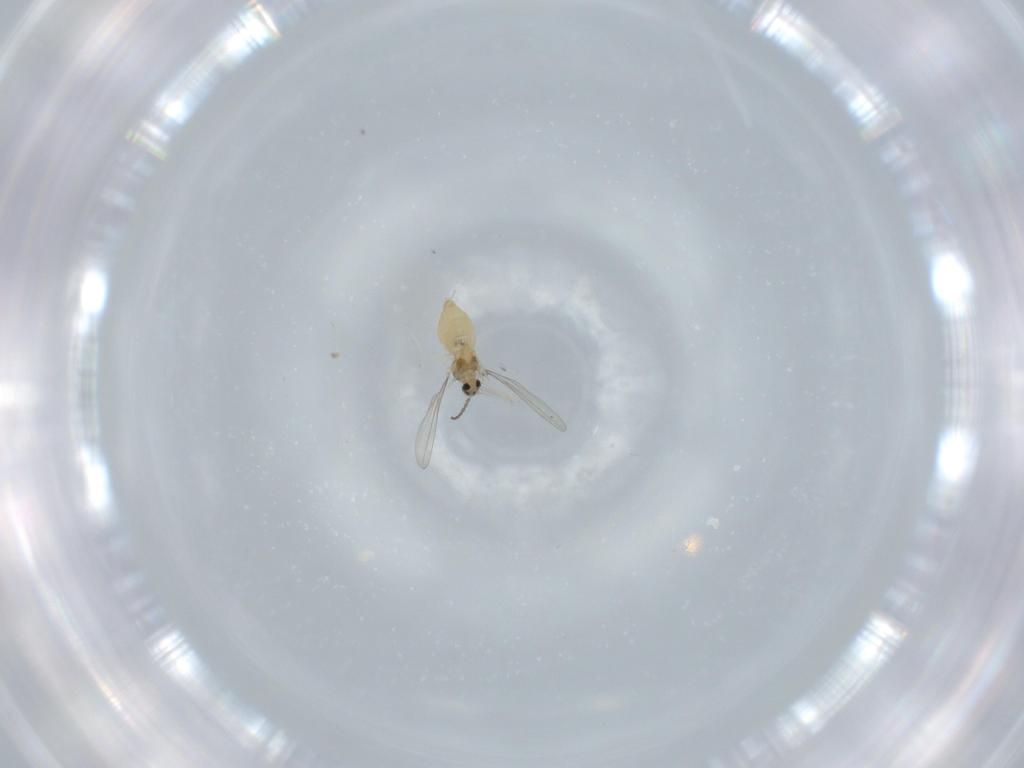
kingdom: Animalia
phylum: Arthropoda
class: Insecta
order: Diptera
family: Cecidomyiidae
